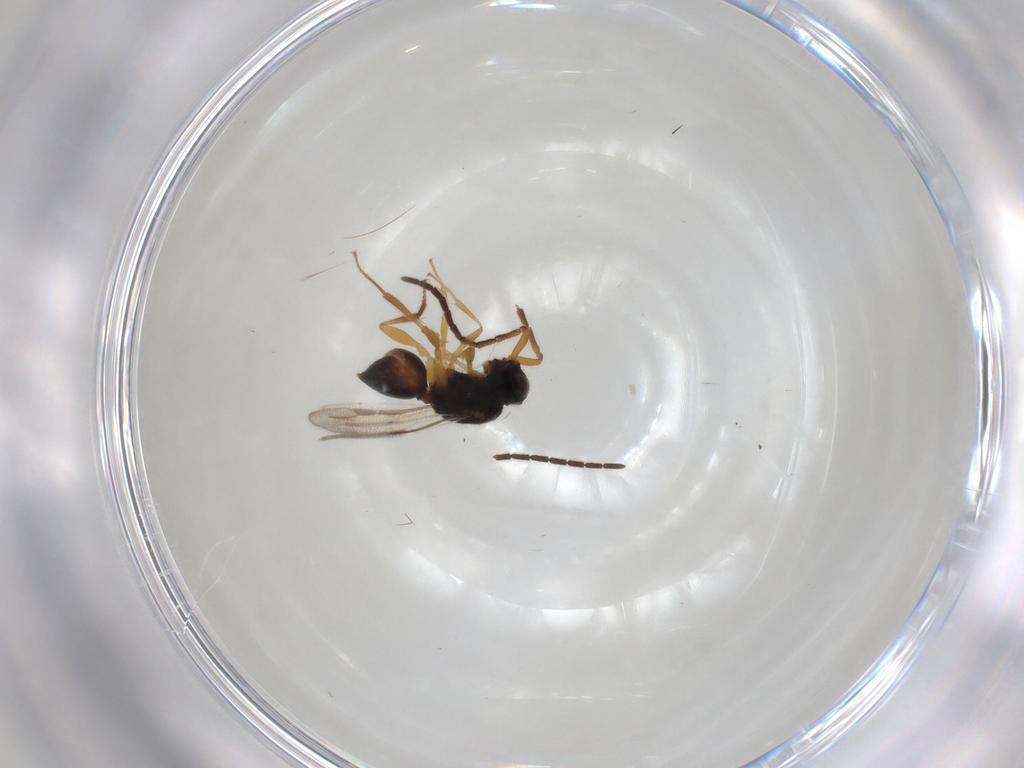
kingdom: Animalia
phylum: Arthropoda
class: Insecta
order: Hymenoptera
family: Megaspilidae
